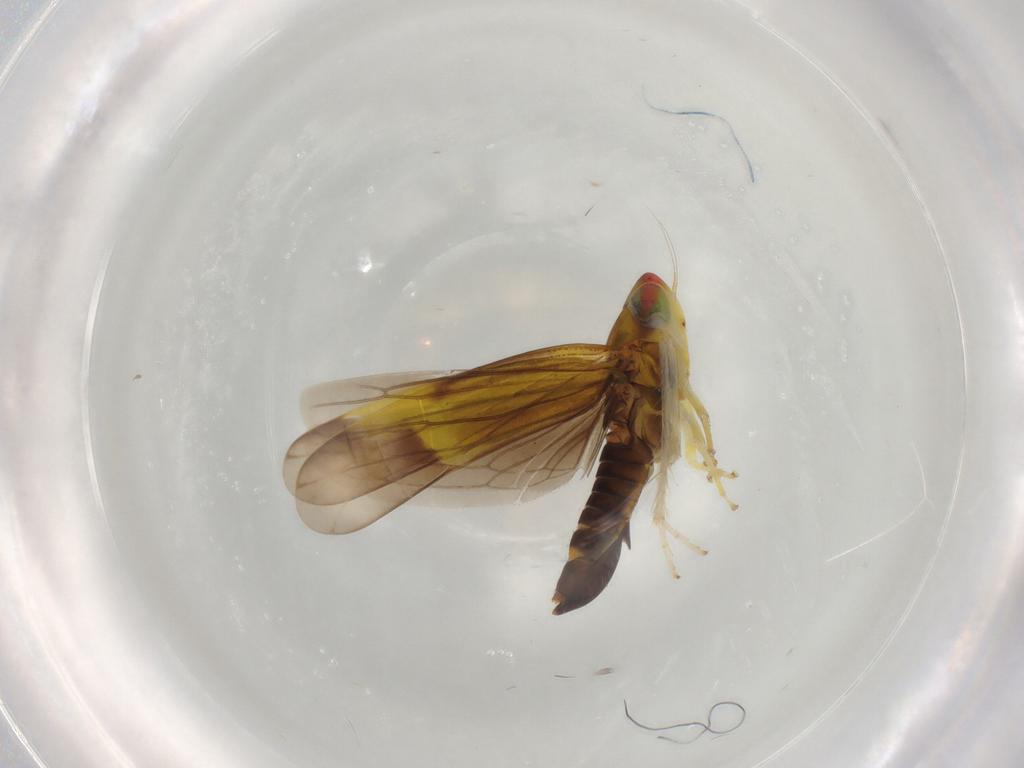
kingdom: Animalia
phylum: Arthropoda
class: Insecta
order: Hemiptera
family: Cicadellidae
